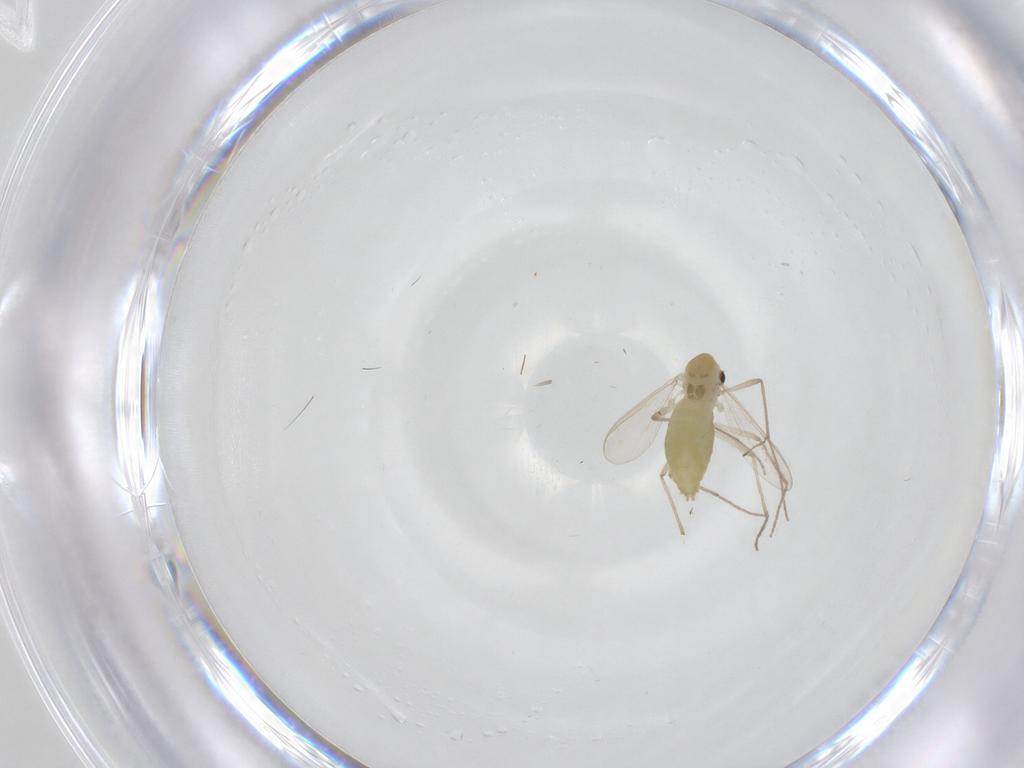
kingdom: Animalia
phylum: Arthropoda
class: Insecta
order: Diptera
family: Chironomidae
